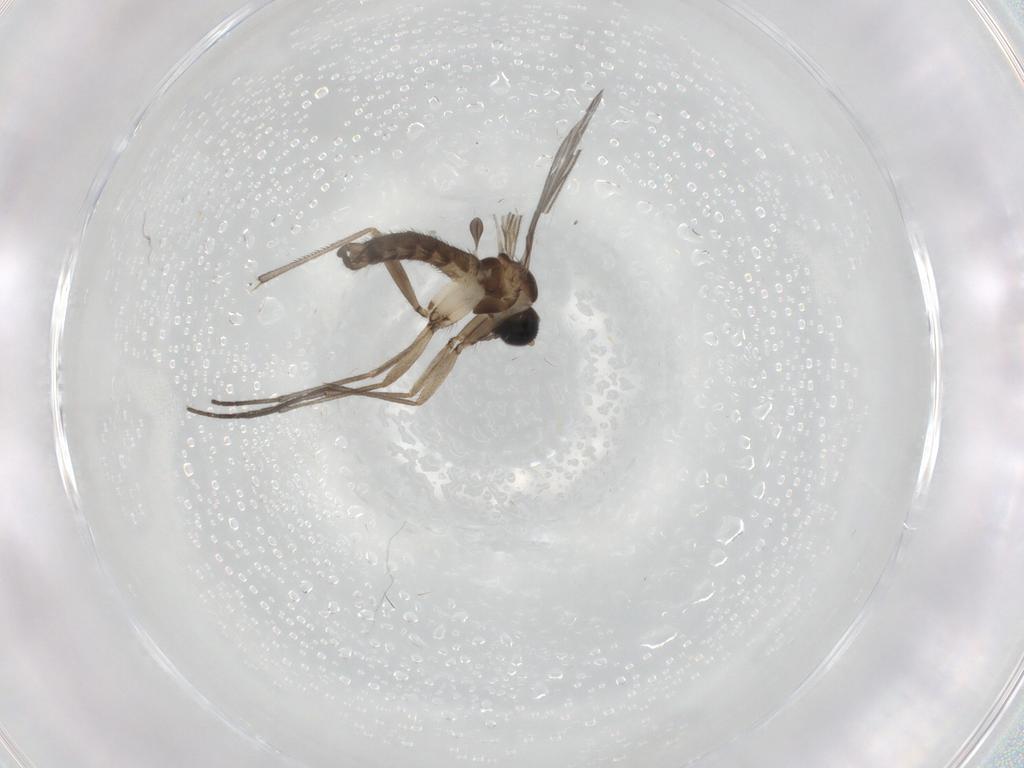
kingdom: Animalia
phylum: Arthropoda
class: Insecta
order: Diptera
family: Sciaridae
